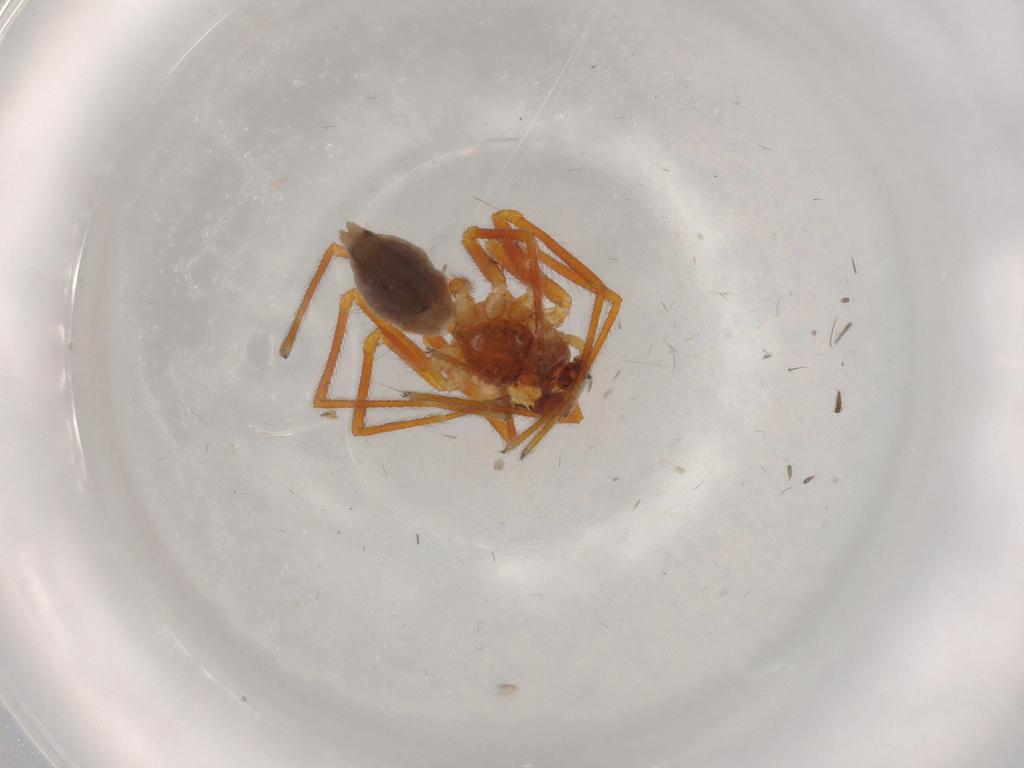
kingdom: Animalia
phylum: Arthropoda
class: Arachnida
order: Araneae
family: Linyphiidae
